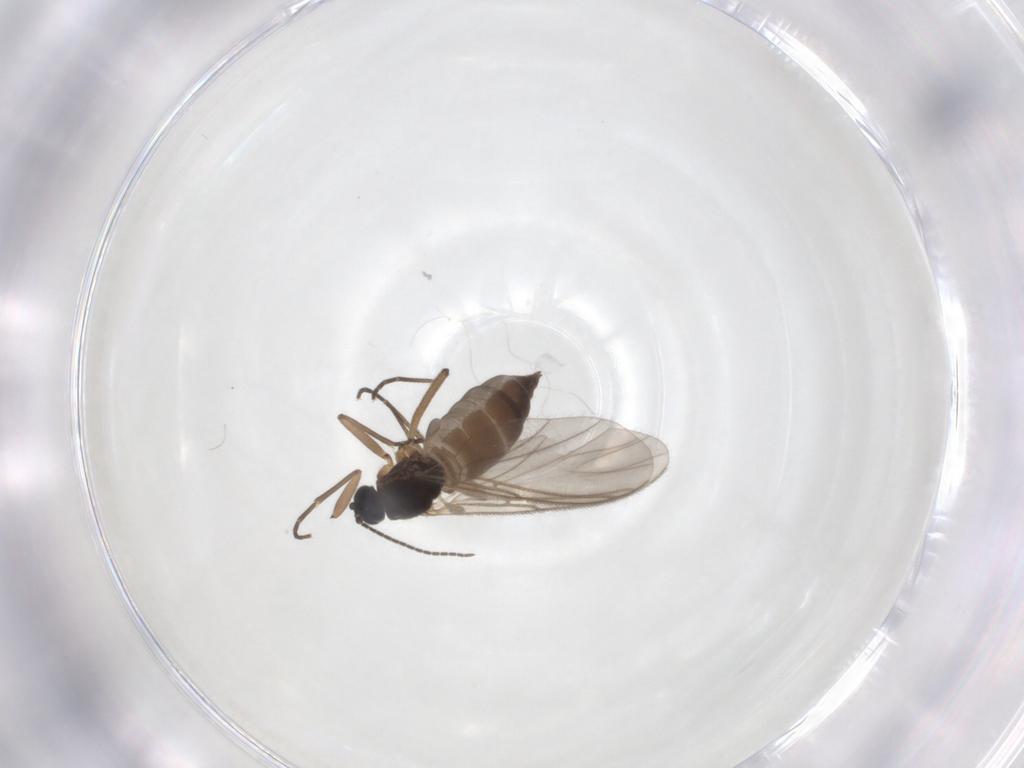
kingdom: Animalia
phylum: Arthropoda
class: Insecta
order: Diptera
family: Sciaridae
